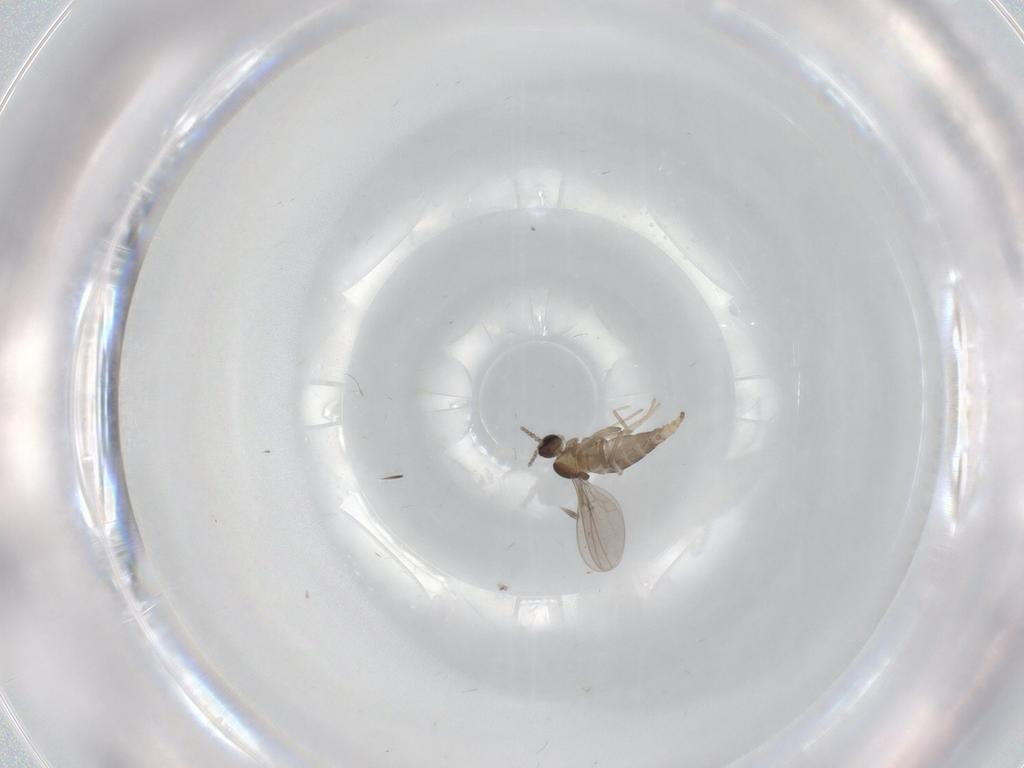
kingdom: Animalia
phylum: Arthropoda
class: Insecta
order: Diptera
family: Cecidomyiidae
